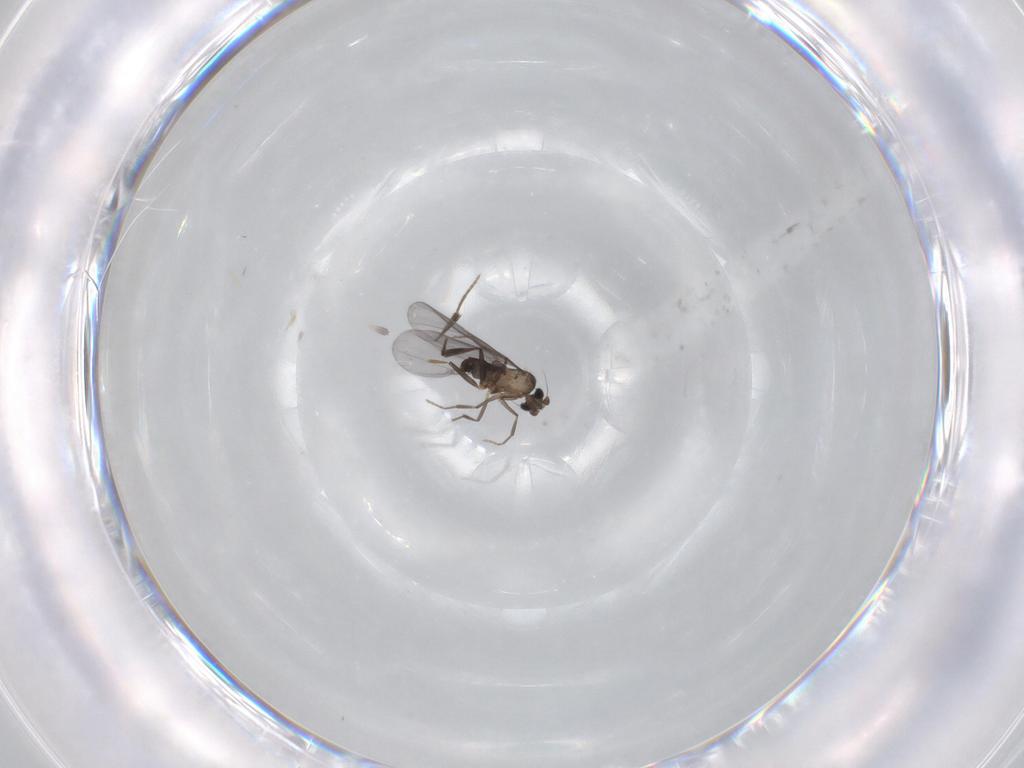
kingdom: Animalia
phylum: Arthropoda
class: Insecta
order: Diptera
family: Phoridae
